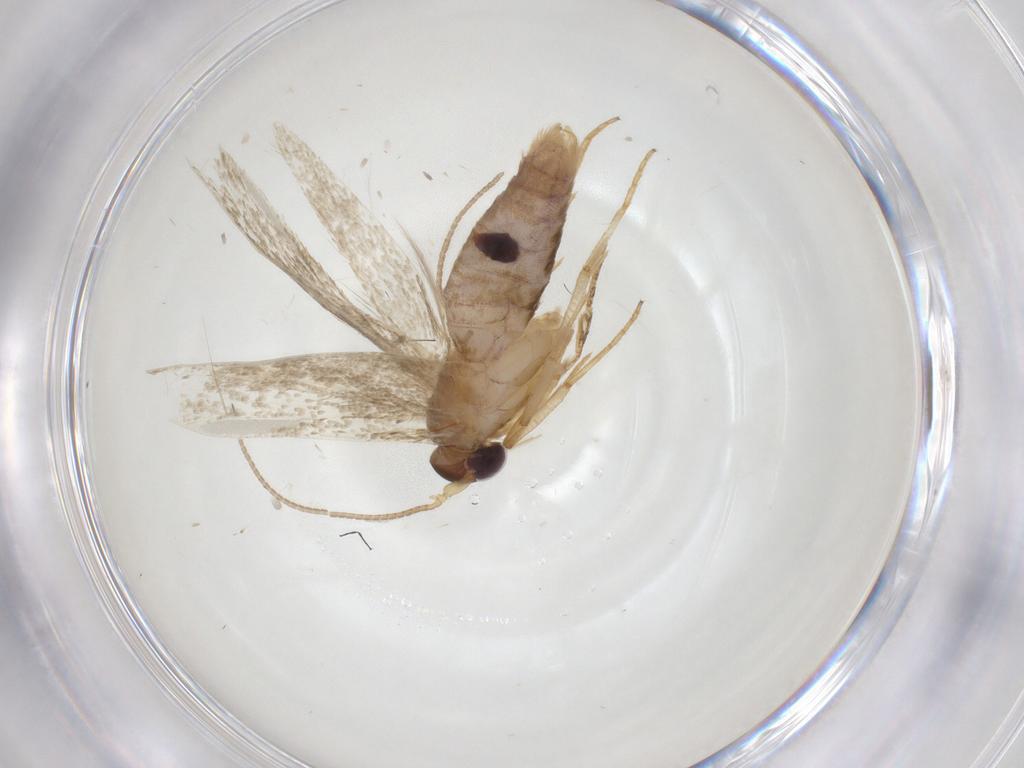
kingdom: Animalia
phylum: Arthropoda
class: Insecta
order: Lepidoptera
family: Blastobasidae
